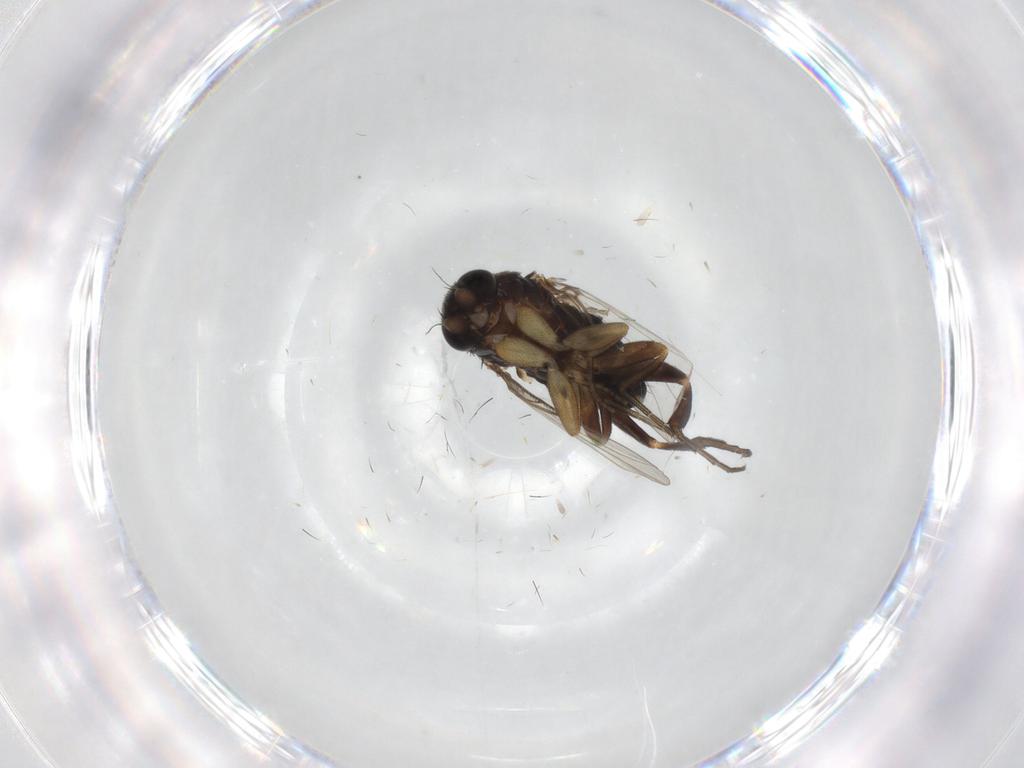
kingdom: Animalia
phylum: Arthropoda
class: Insecta
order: Diptera
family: Phoridae
